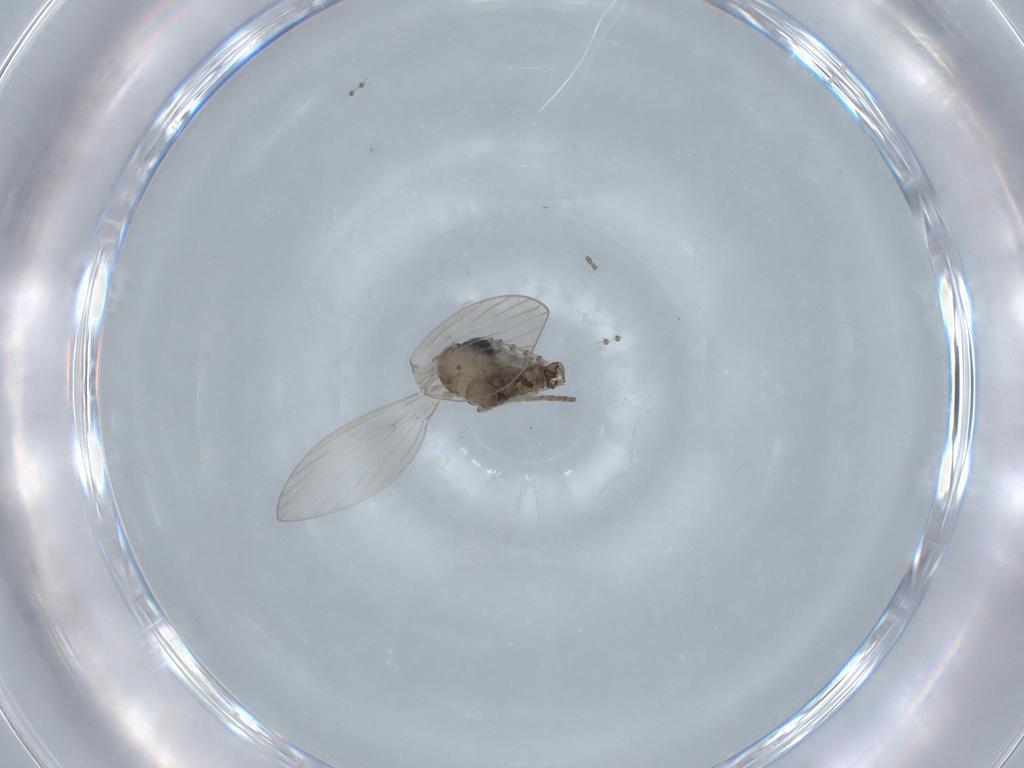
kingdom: Animalia
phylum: Arthropoda
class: Insecta
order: Diptera
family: Psychodidae
